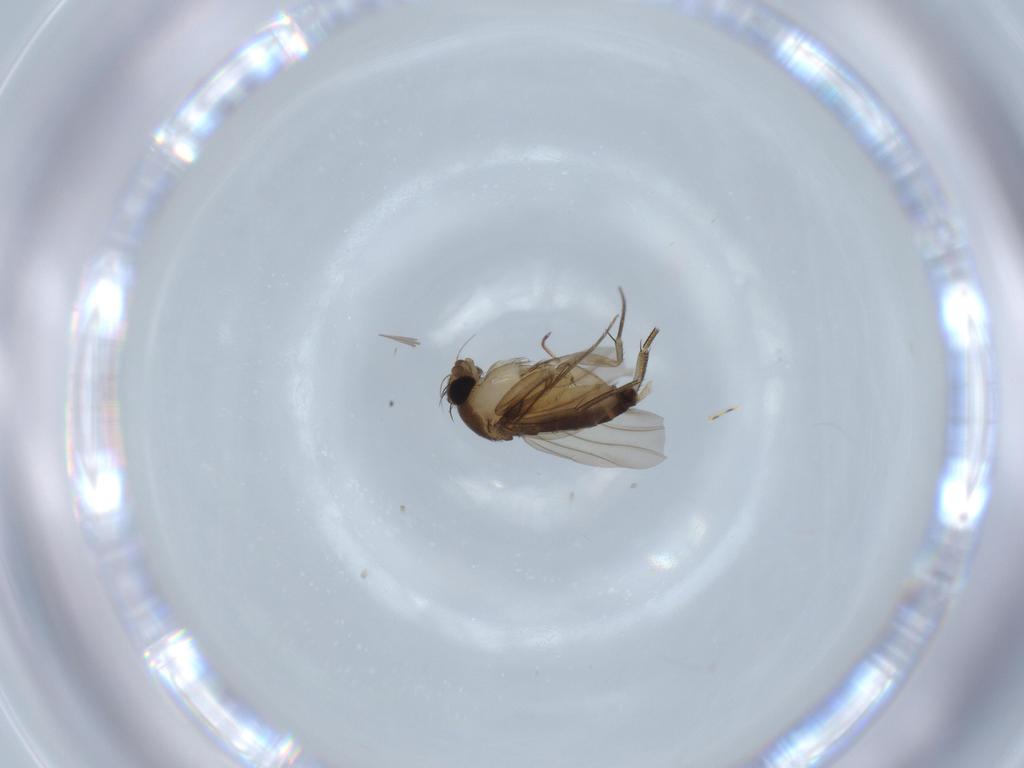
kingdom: Animalia
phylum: Arthropoda
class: Insecta
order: Diptera
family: Phoridae
